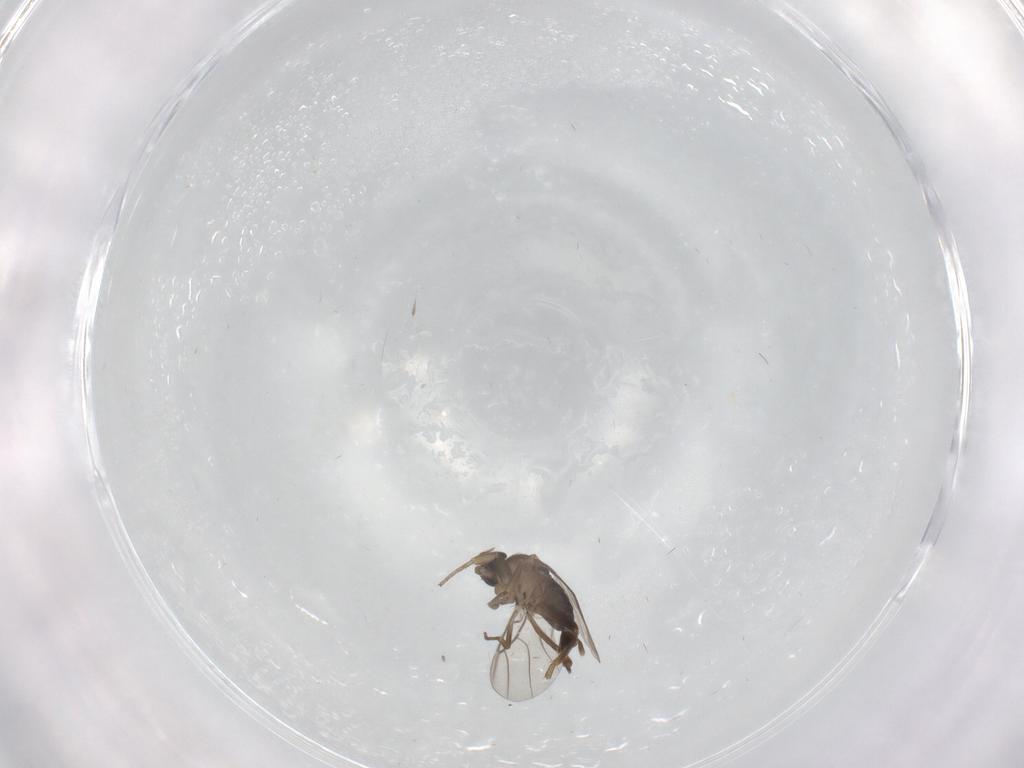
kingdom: Animalia
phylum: Arthropoda
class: Insecta
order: Diptera
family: Phoridae
